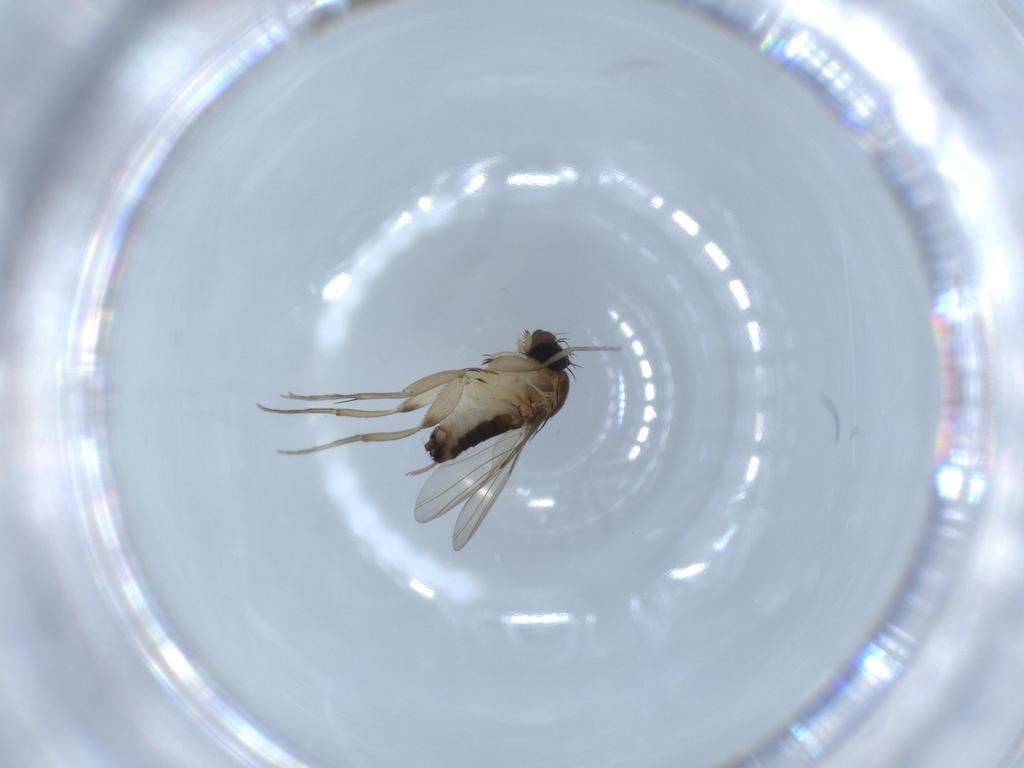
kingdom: Animalia
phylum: Arthropoda
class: Insecta
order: Diptera
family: Phoridae
